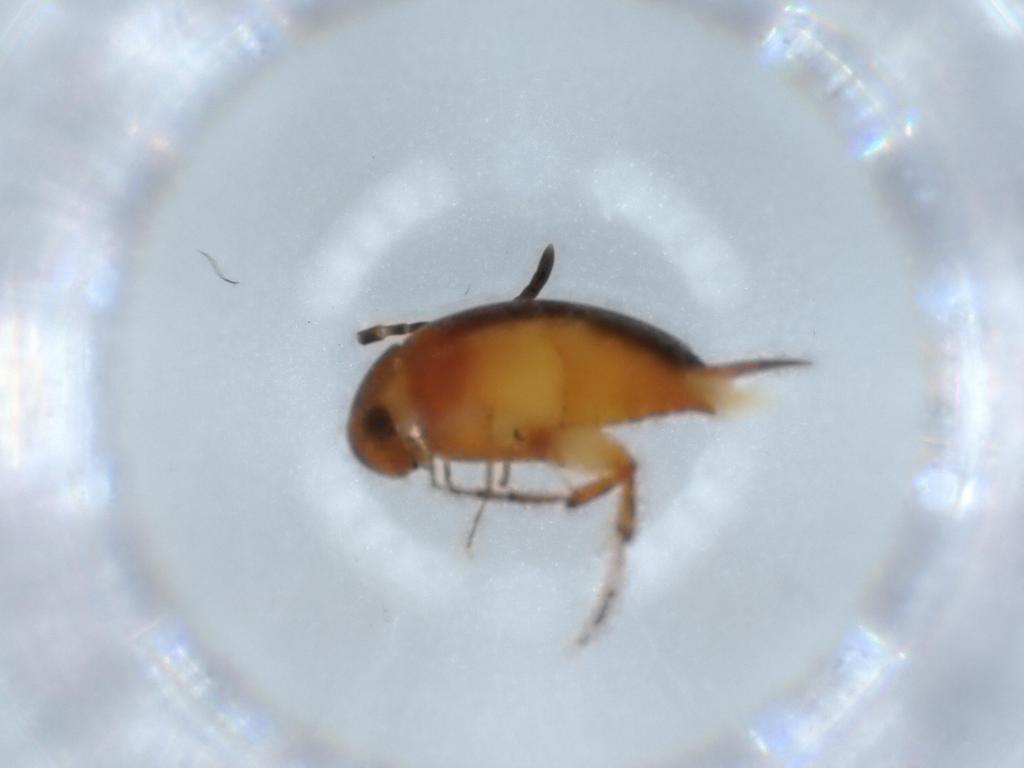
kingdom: Animalia
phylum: Arthropoda
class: Insecta
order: Coleoptera
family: Mordellidae
